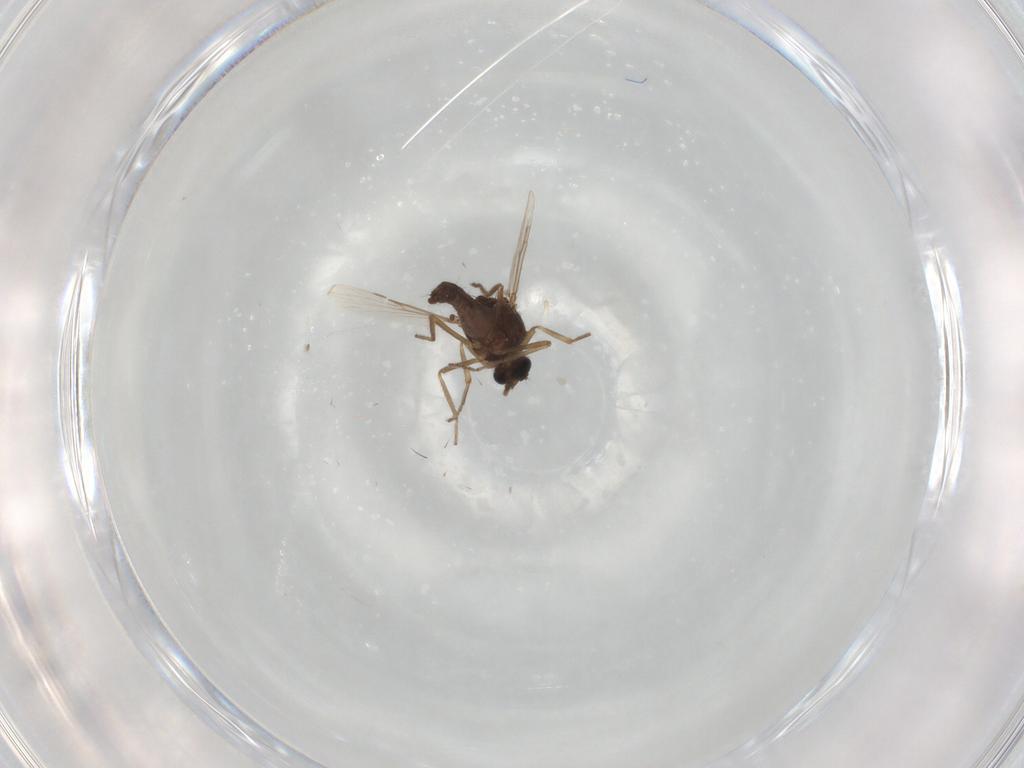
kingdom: Animalia
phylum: Arthropoda
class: Insecta
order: Diptera
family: Ceratopogonidae
